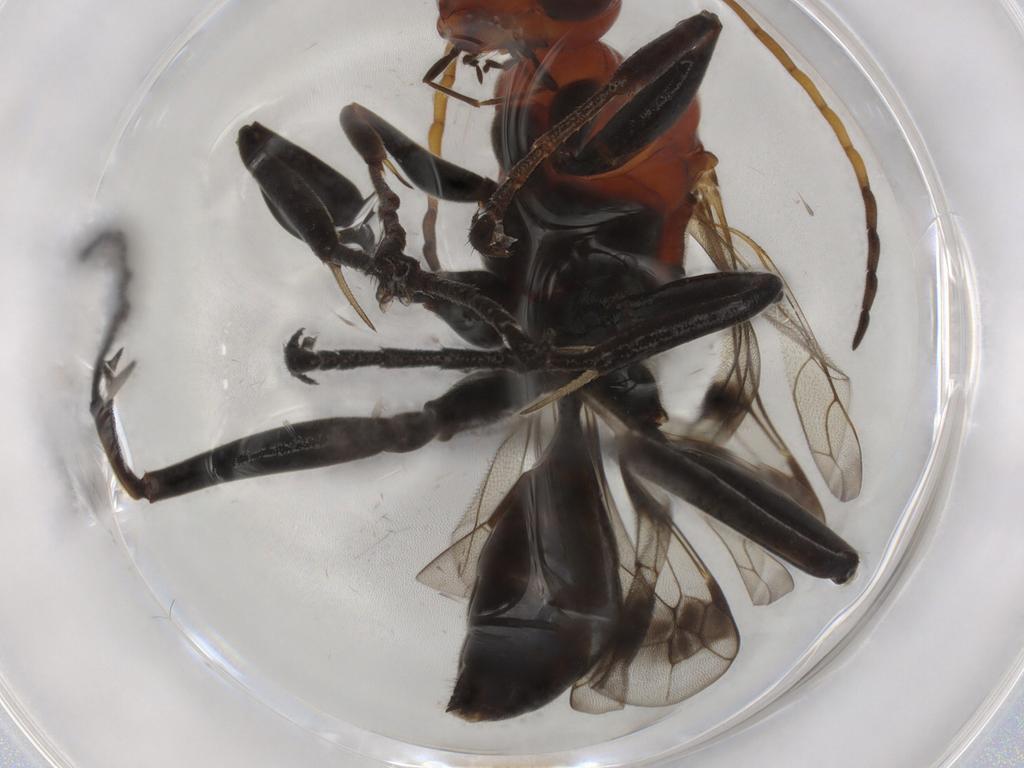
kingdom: Animalia
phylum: Arthropoda
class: Insecta
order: Hymenoptera
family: Pompilidae
